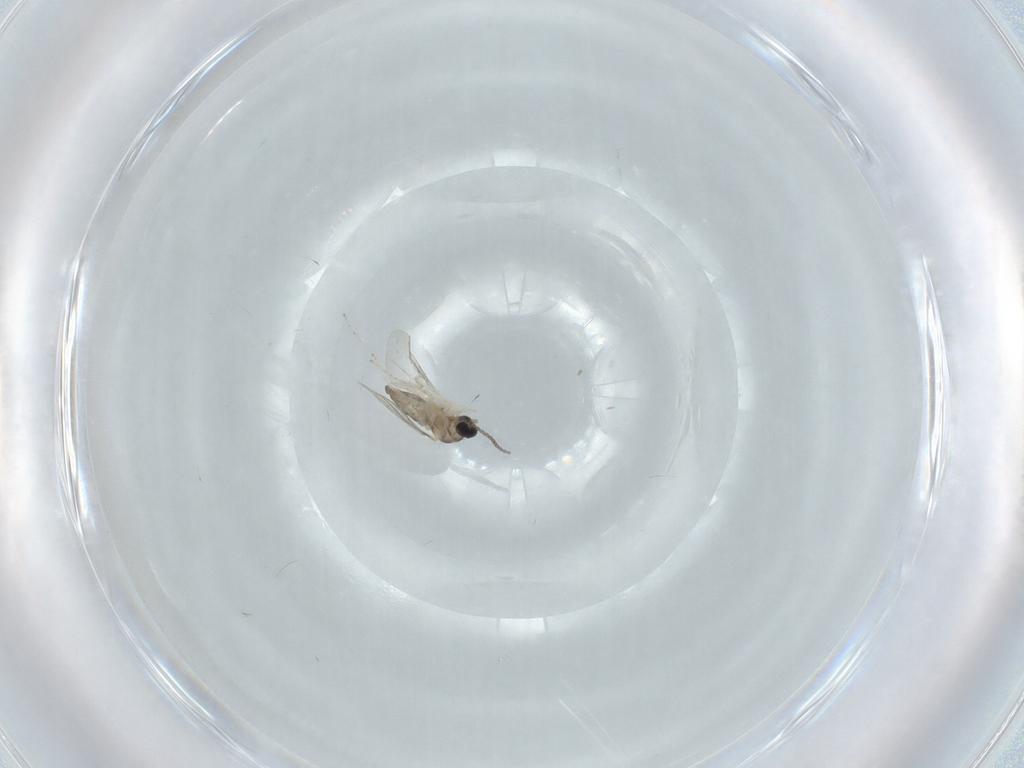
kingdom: Animalia
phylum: Arthropoda
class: Insecta
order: Diptera
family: Cecidomyiidae
